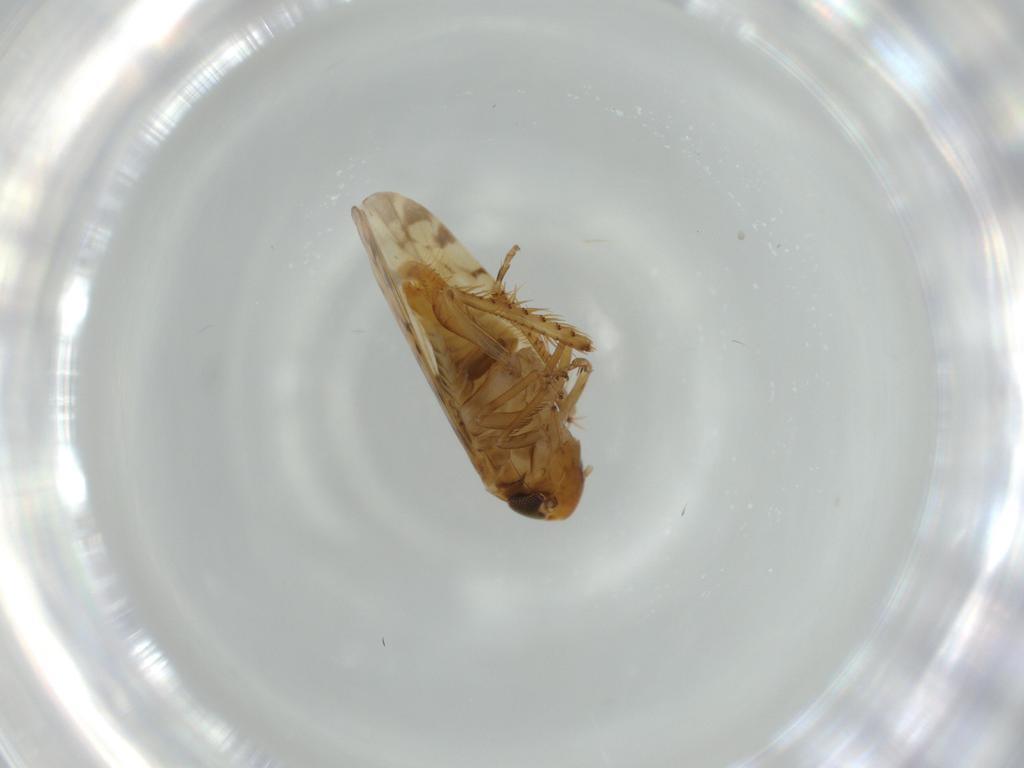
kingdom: Animalia
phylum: Arthropoda
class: Insecta
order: Hemiptera
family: Cicadellidae
